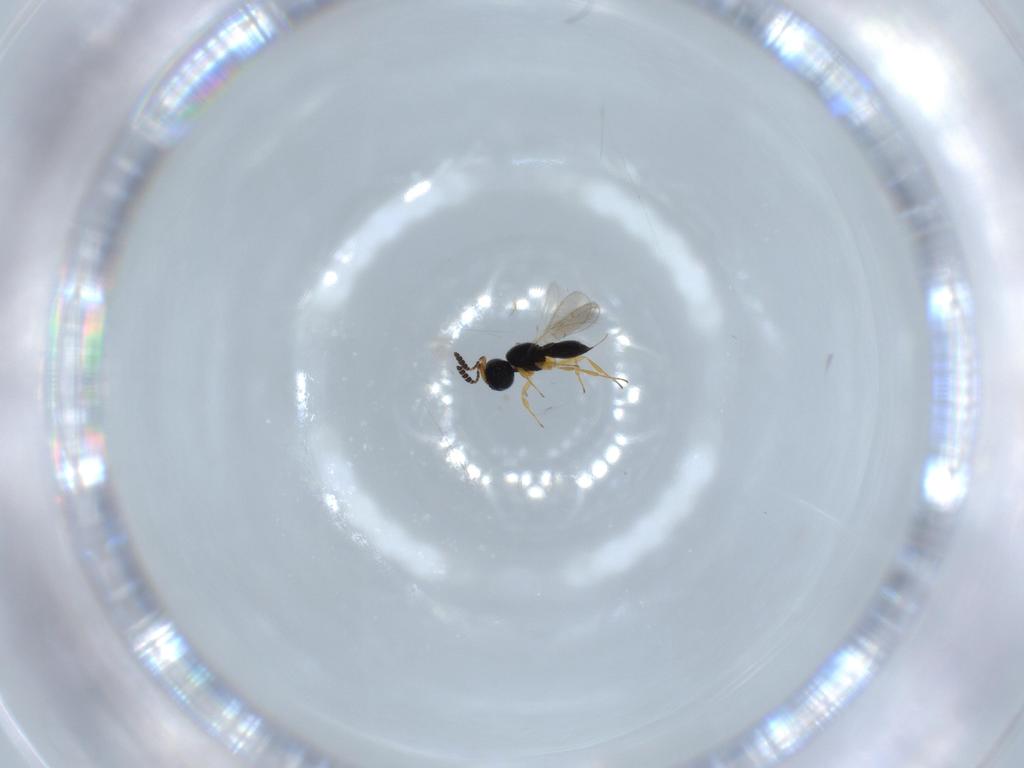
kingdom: Animalia
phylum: Arthropoda
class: Insecta
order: Hymenoptera
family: Scelionidae
